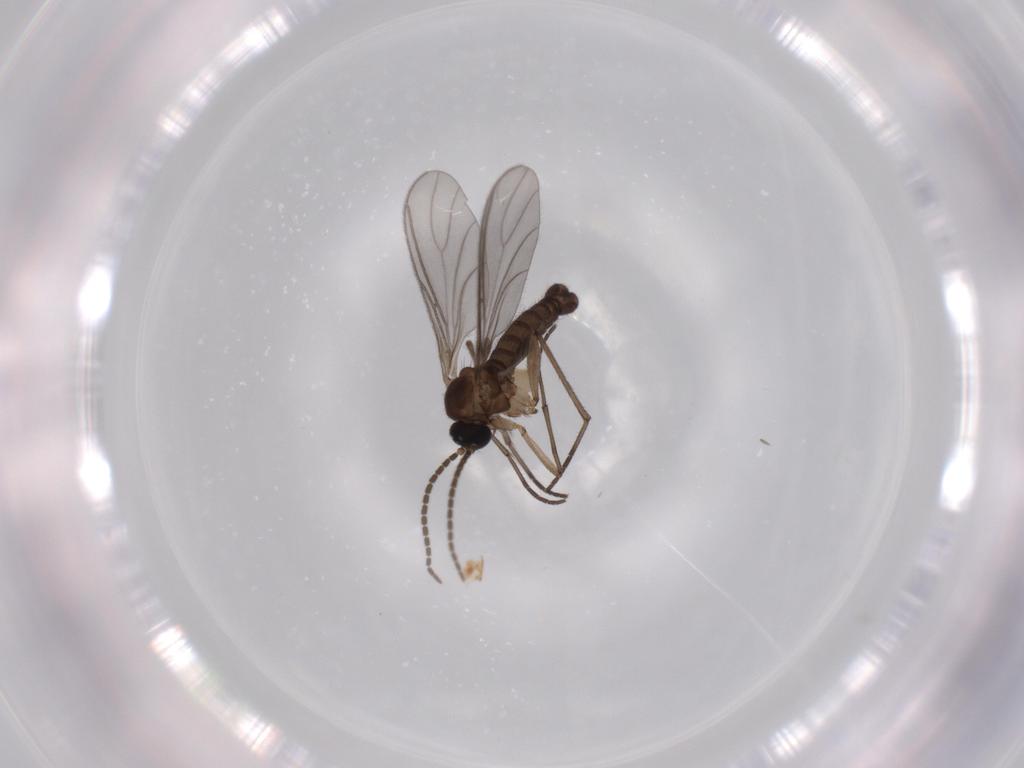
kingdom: Animalia
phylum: Arthropoda
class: Insecta
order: Diptera
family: Sciaridae
